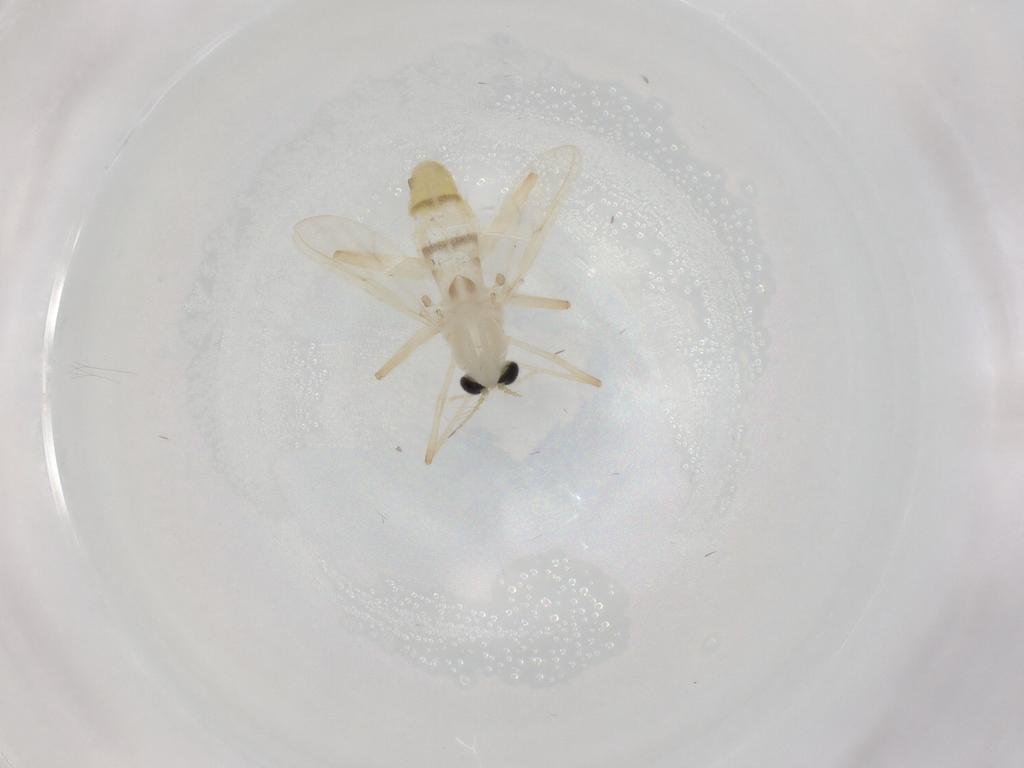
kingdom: Animalia
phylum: Arthropoda
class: Insecta
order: Diptera
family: Chironomidae
